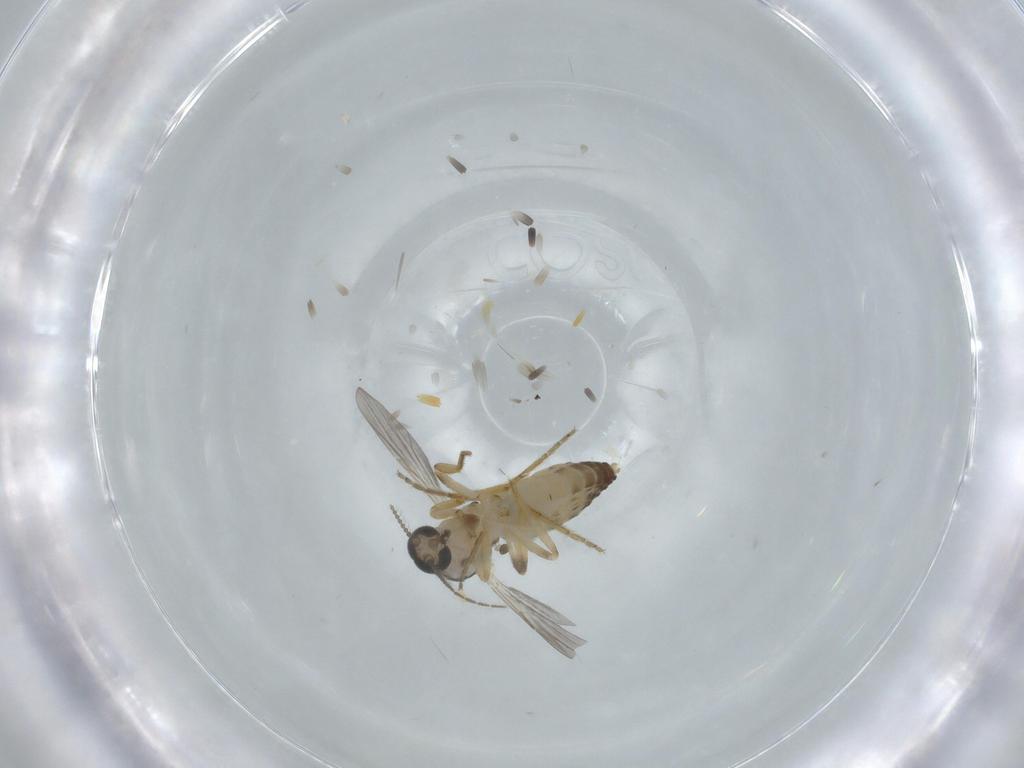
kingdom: Animalia
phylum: Arthropoda
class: Insecta
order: Diptera
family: Ceratopogonidae
